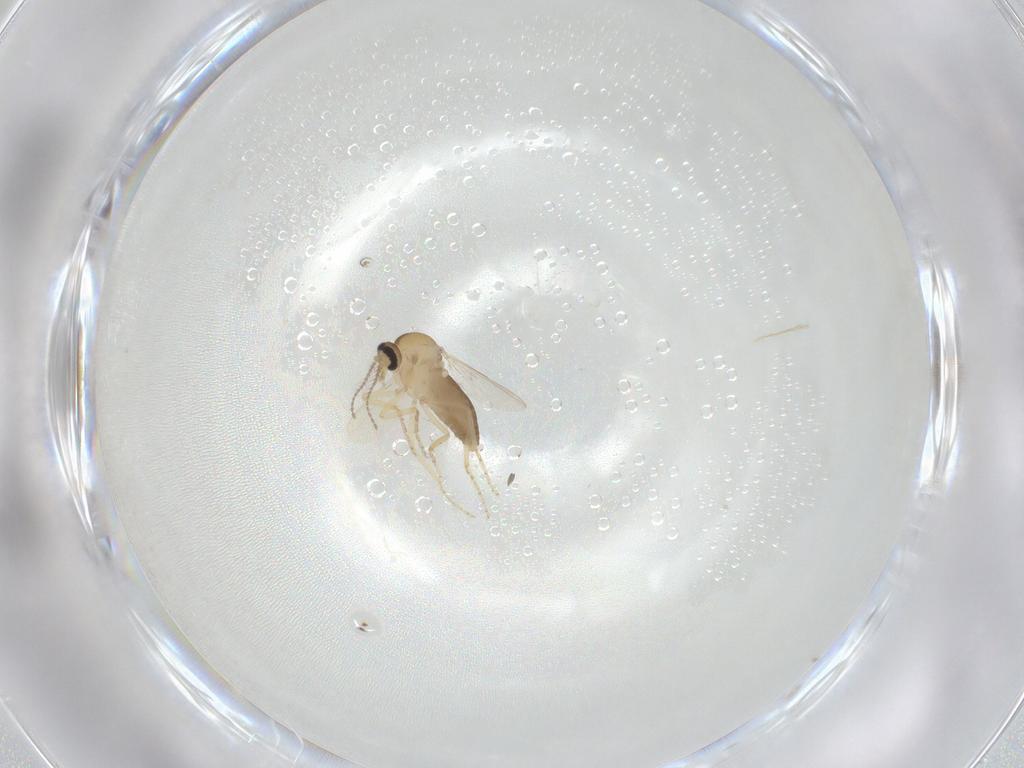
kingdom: Animalia
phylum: Arthropoda
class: Insecta
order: Diptera
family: Ceratopogonidae
